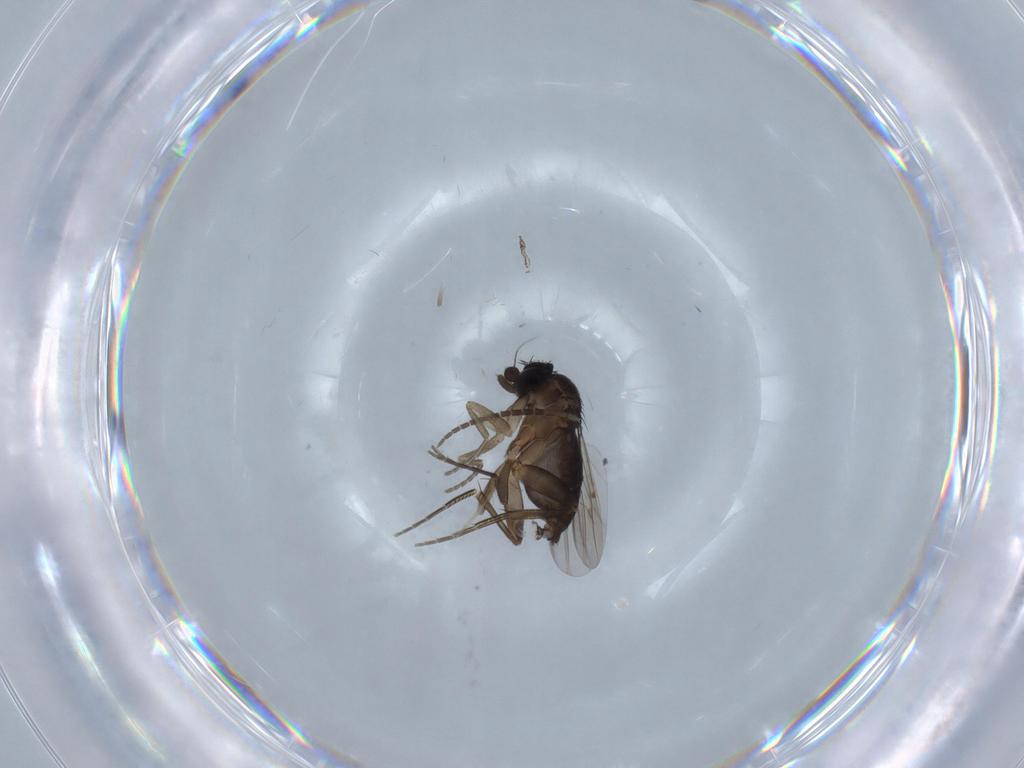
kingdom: Animalia
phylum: Arthropoda
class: Insecta
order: Diptera
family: Phoridae
